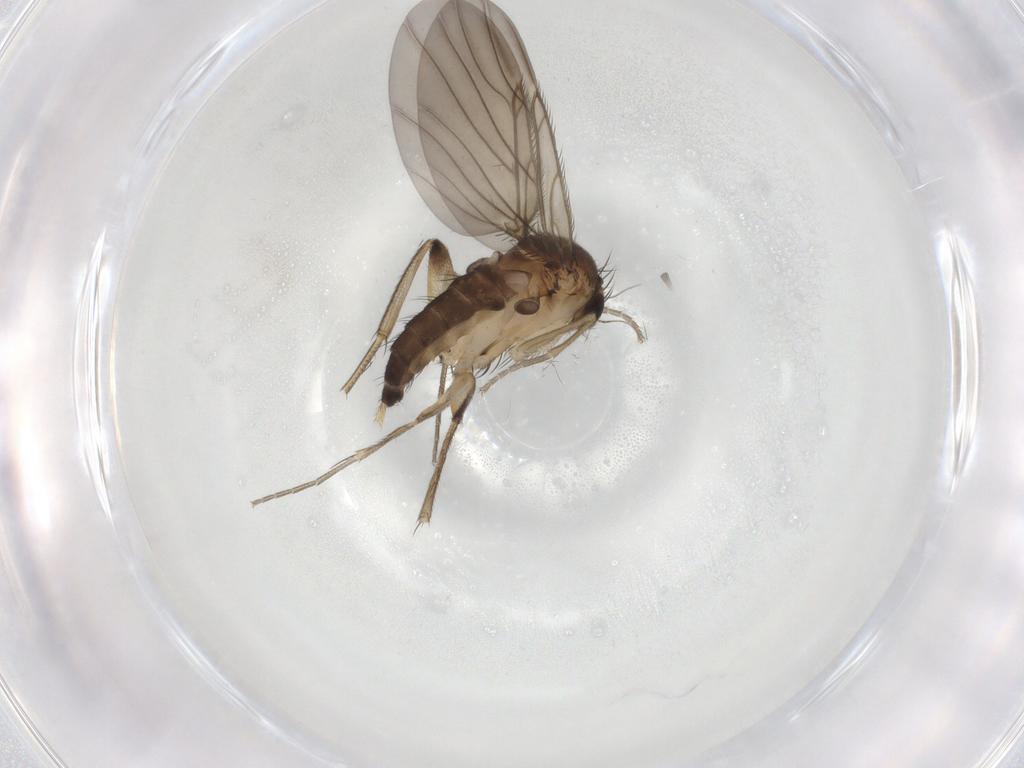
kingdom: Animalia
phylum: Arthropoda
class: Insecta
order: Diptera
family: Phoridae
